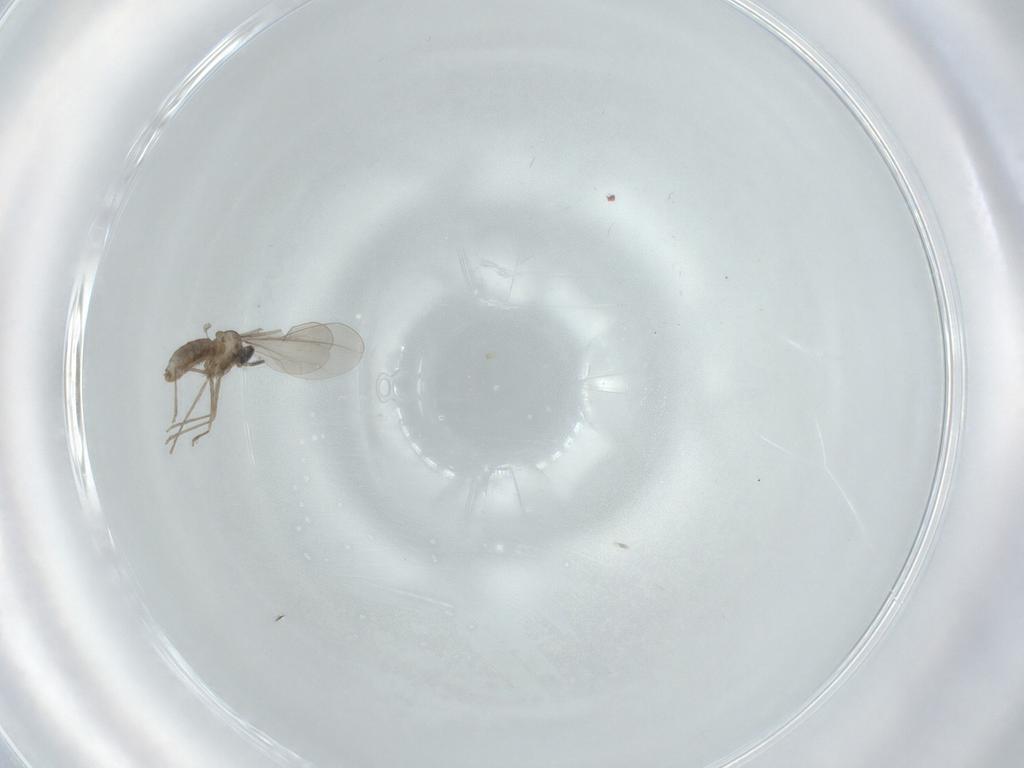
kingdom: Animalia
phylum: Arthropoda
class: Insecta
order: Diptera
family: Cecidomyiidae
